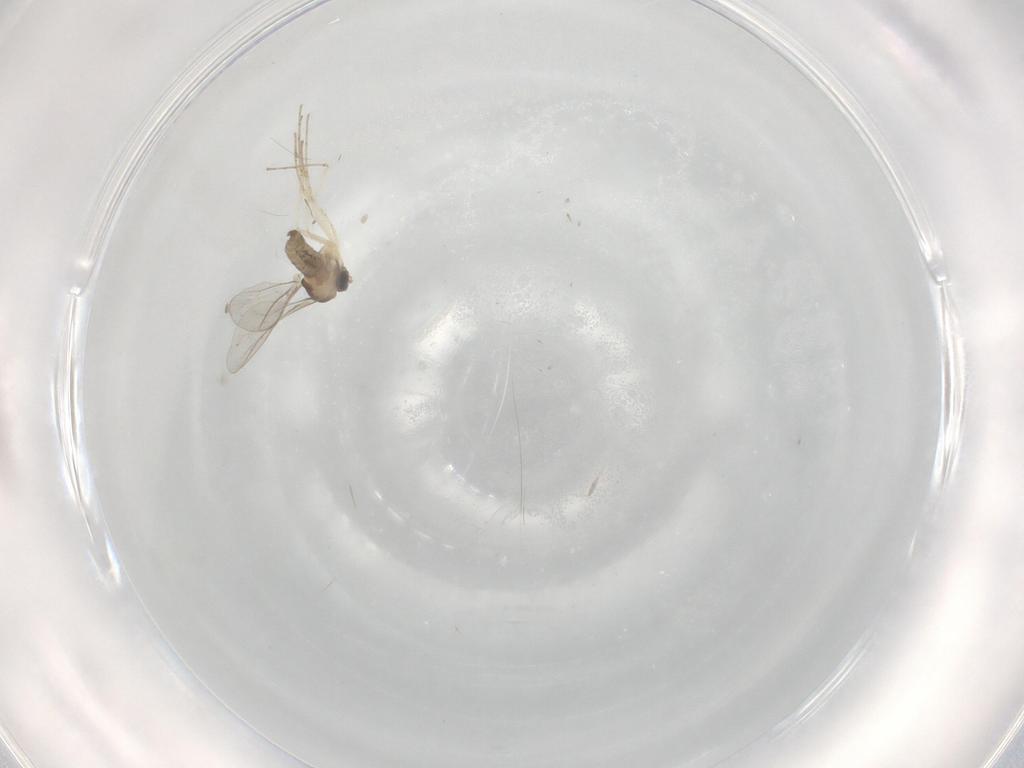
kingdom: Animalia
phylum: Arthropoda
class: Insecta
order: Diptera
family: Cecidomyiidae
